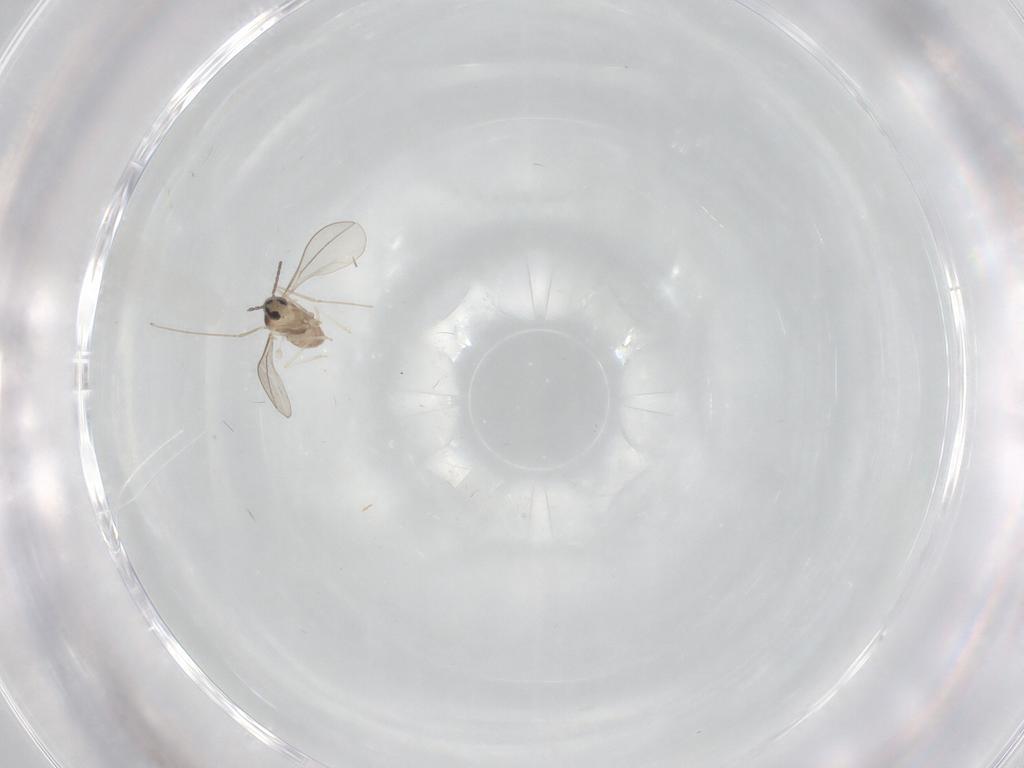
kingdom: Animalia
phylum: Arthropoda
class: Insecta
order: Diptera
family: Cecidomyiidae
